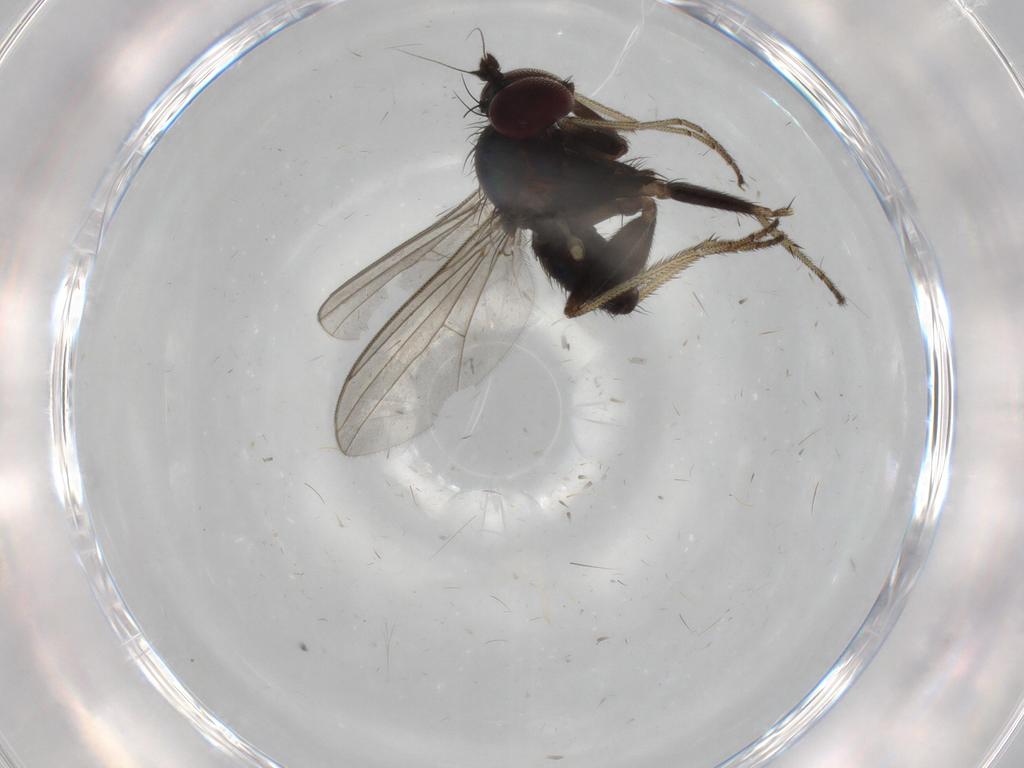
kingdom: Animalia
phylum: Arthropoda
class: Insecta
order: Diptera
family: Dolichopodidae
